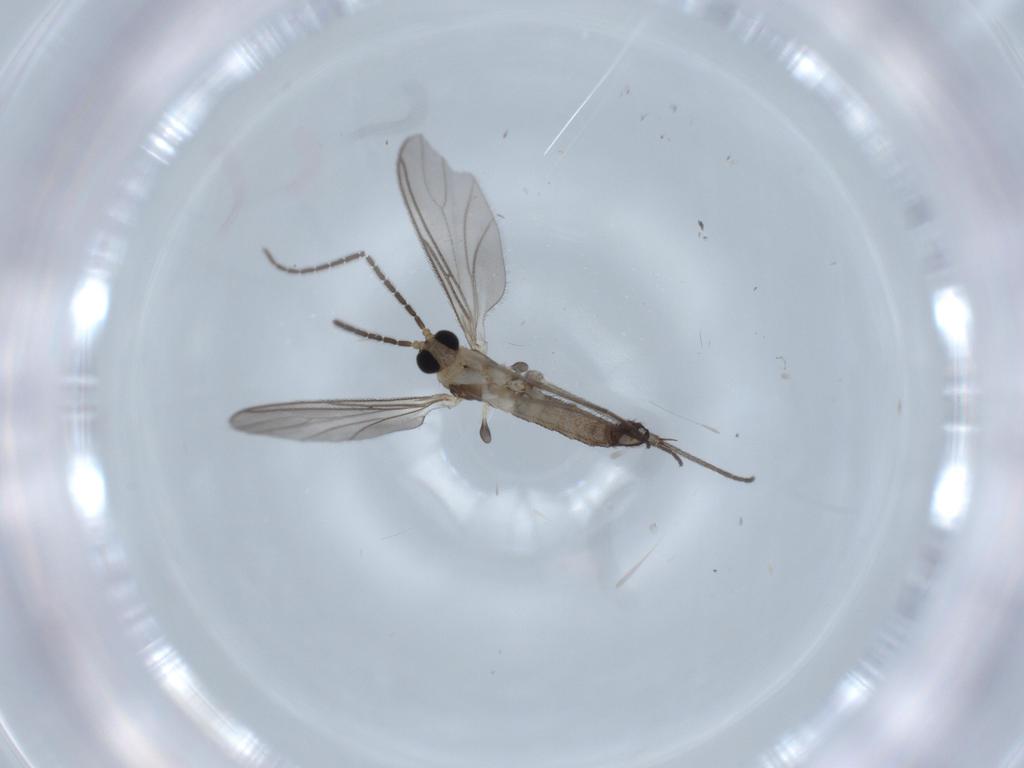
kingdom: Animalia
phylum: Arthropoda
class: Insecta
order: Diptera
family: Sciaridae
